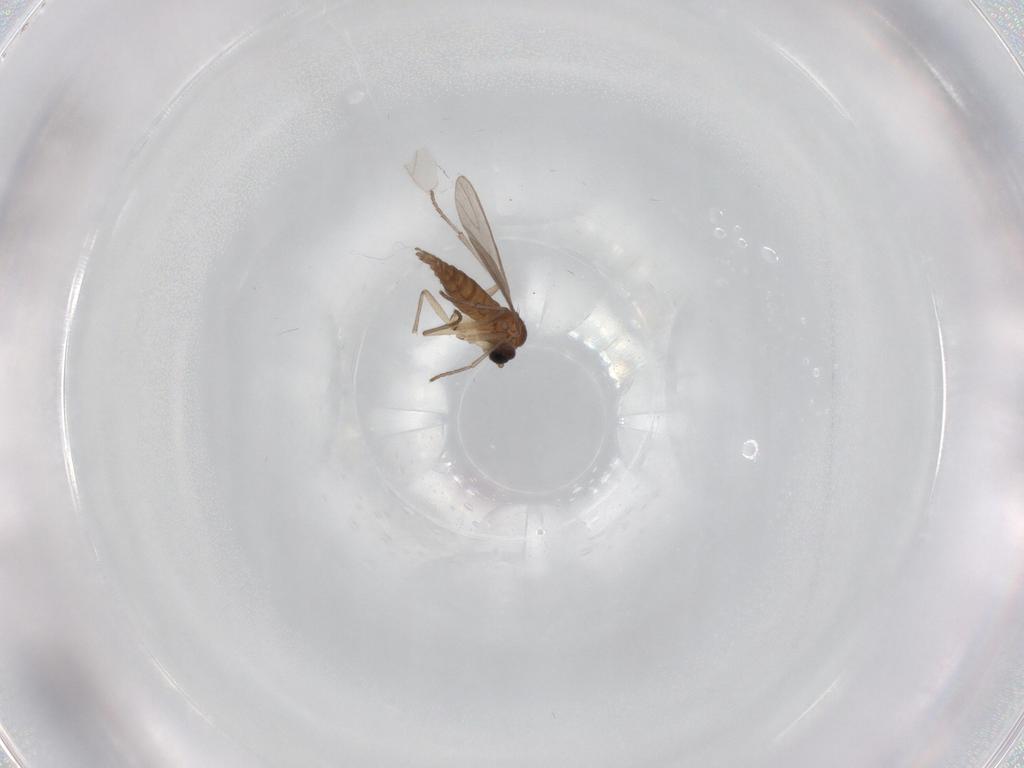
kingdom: Animalia
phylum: Arthropoda
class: Insecta
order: Diptera
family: Sciaridae
